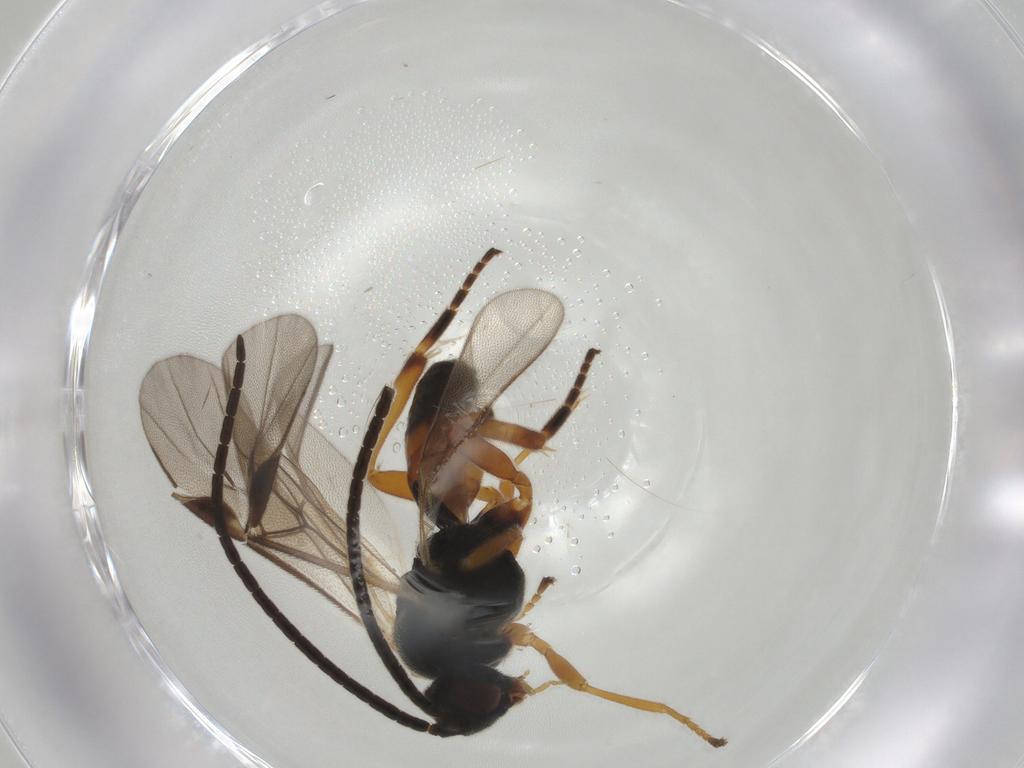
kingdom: Animalia
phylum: Arthropoda
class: Insecta
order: Hymenoptera
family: Braconidae
